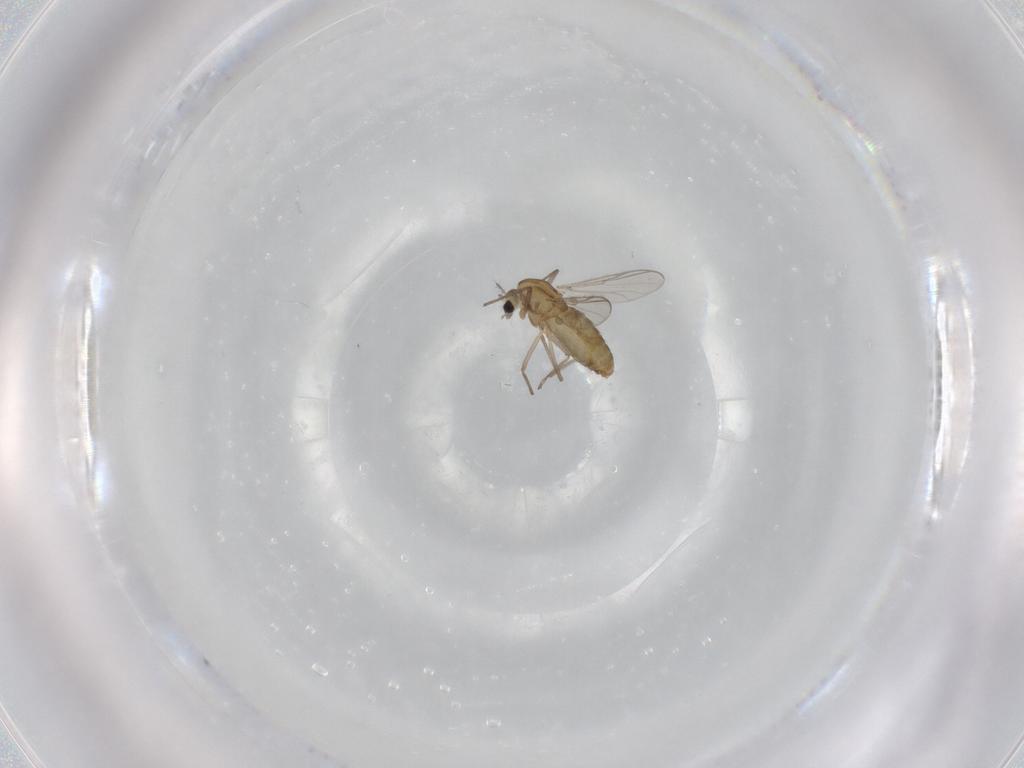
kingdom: Animalia
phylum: Arthropoda
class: Insecta
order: Diptera
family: Chironomidae
